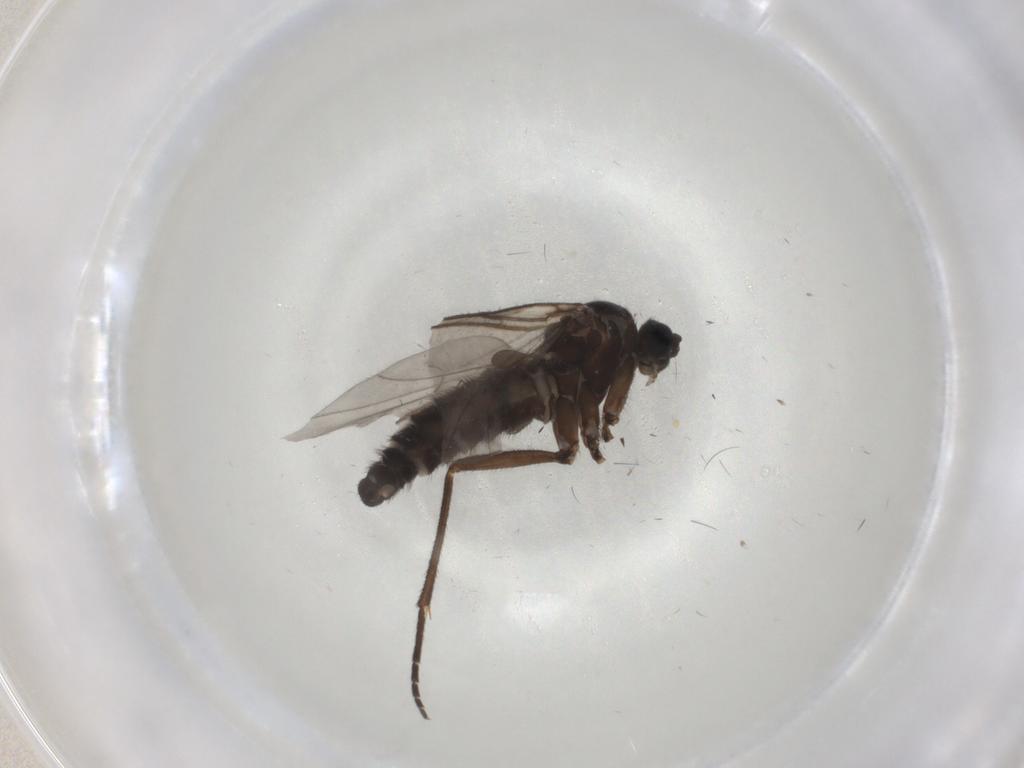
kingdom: Animalia
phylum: Arthropoda
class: Insecta
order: Diptera
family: Sciaridae
